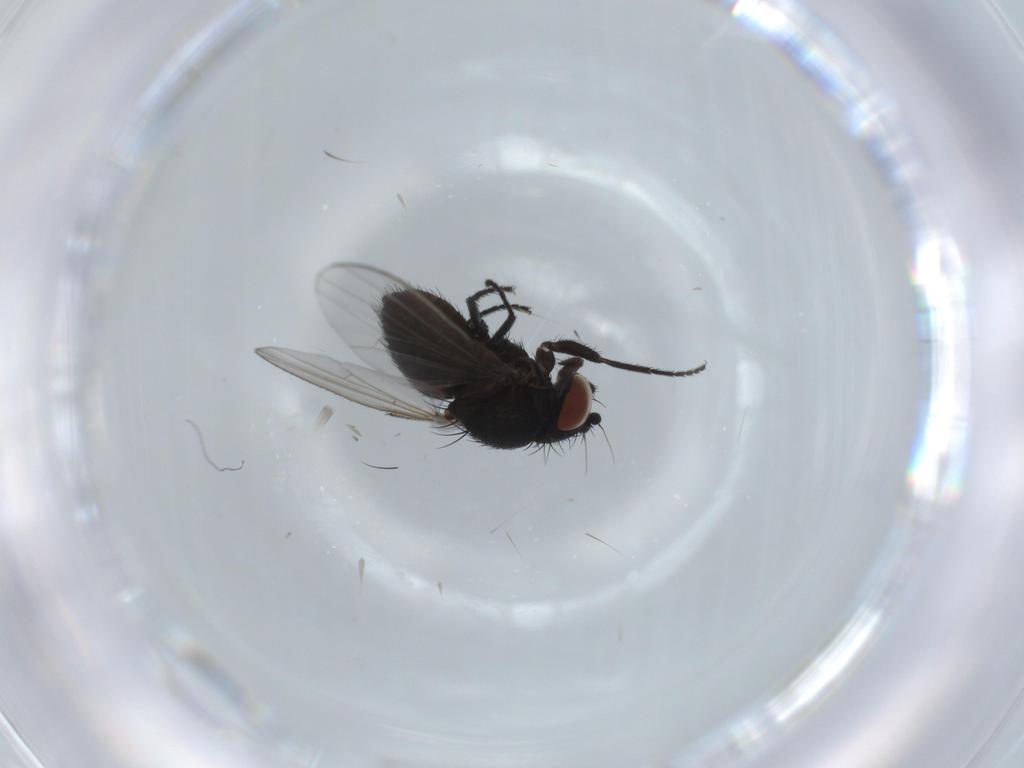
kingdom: Animalia
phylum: Arthropoda
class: Insecta
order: Diptera
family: Milichiidae
